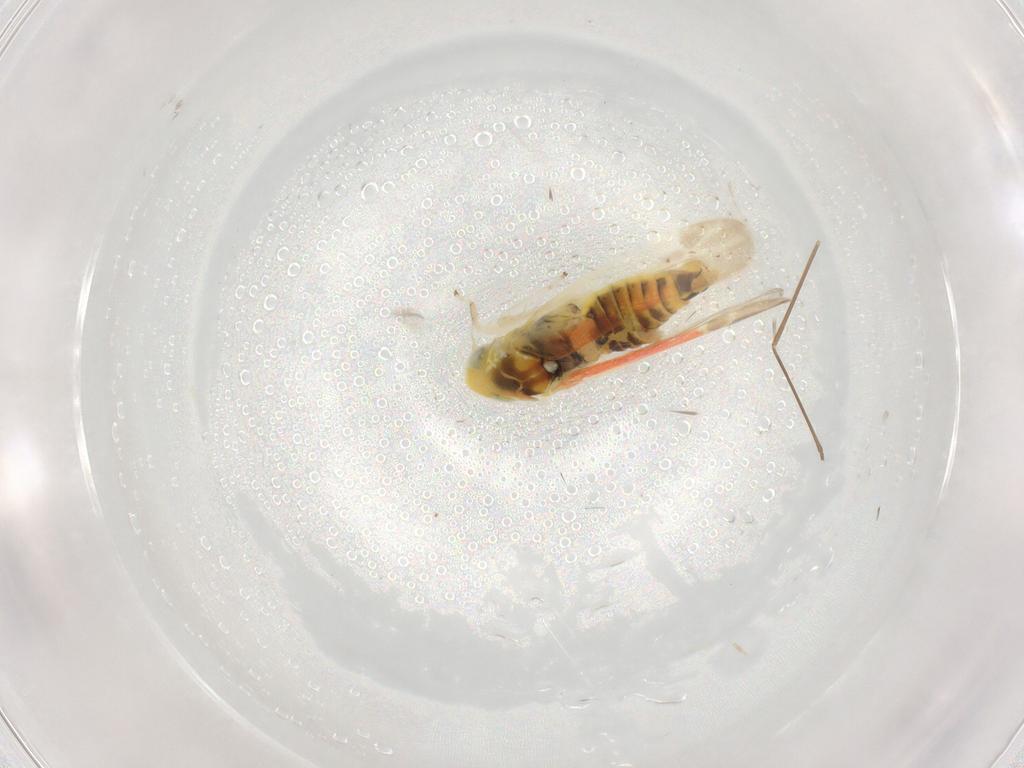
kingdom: Animalia
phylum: Arthropoda
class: Insecta
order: Hemiptera
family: Cicadellidae
